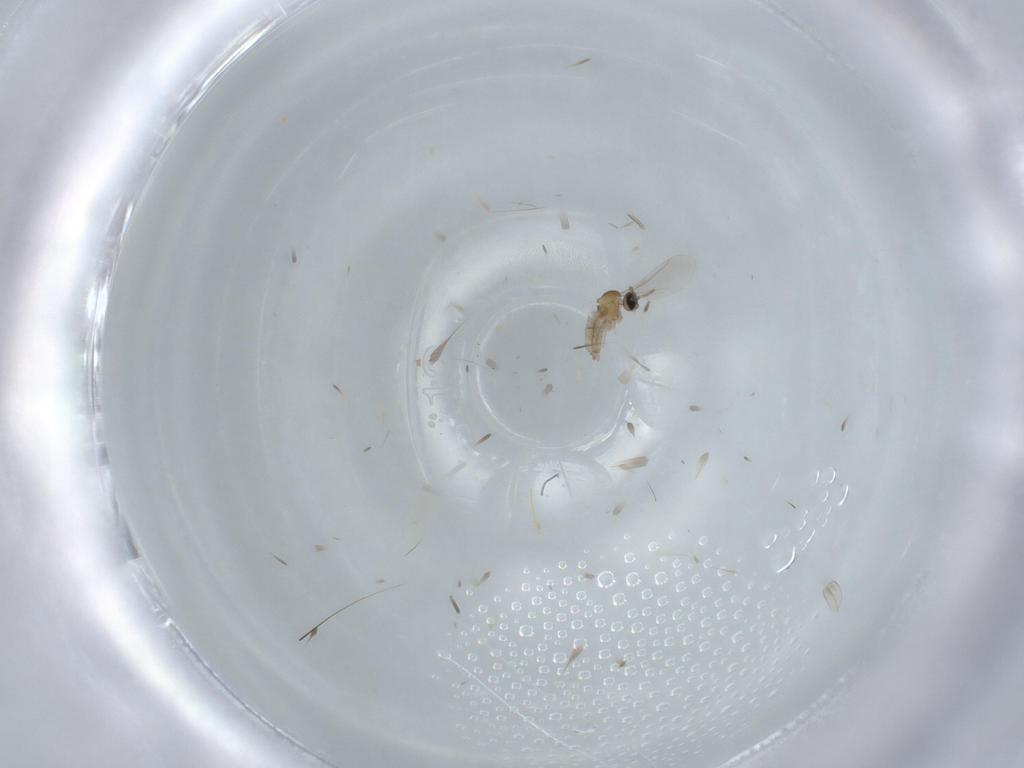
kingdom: Animalia
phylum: Arthropoda
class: Insecta
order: Diptera
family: Cecidomyiidae
